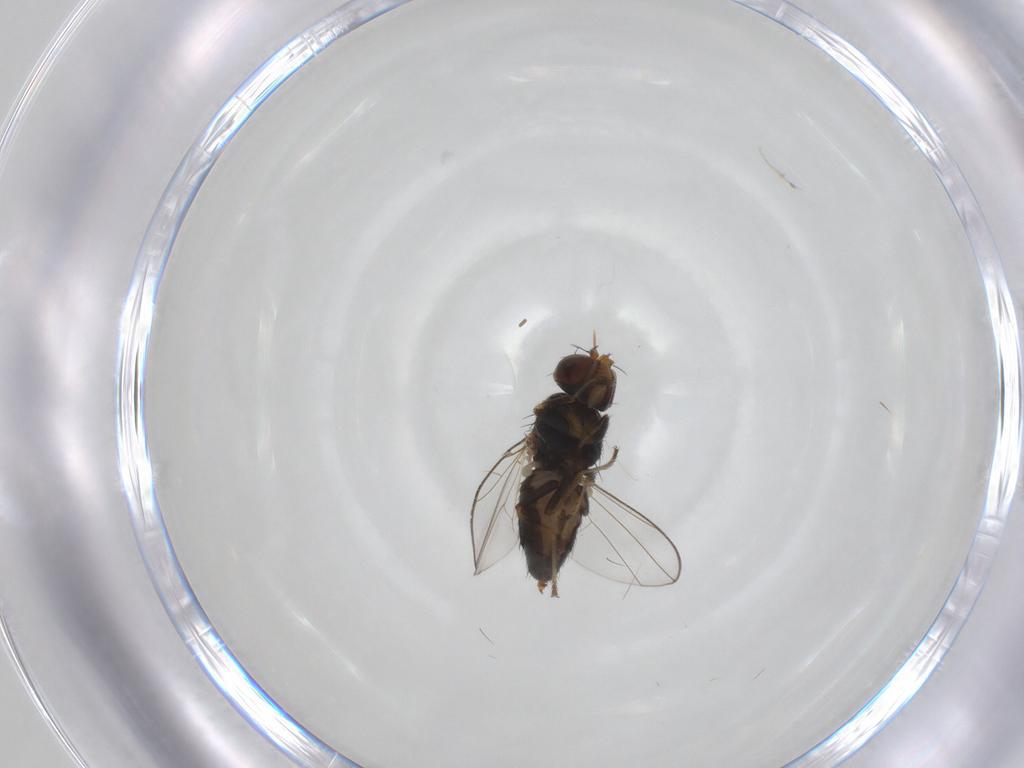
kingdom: Animalia
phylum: Arthropoda
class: Insecta
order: Diptera
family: Ephydridae
